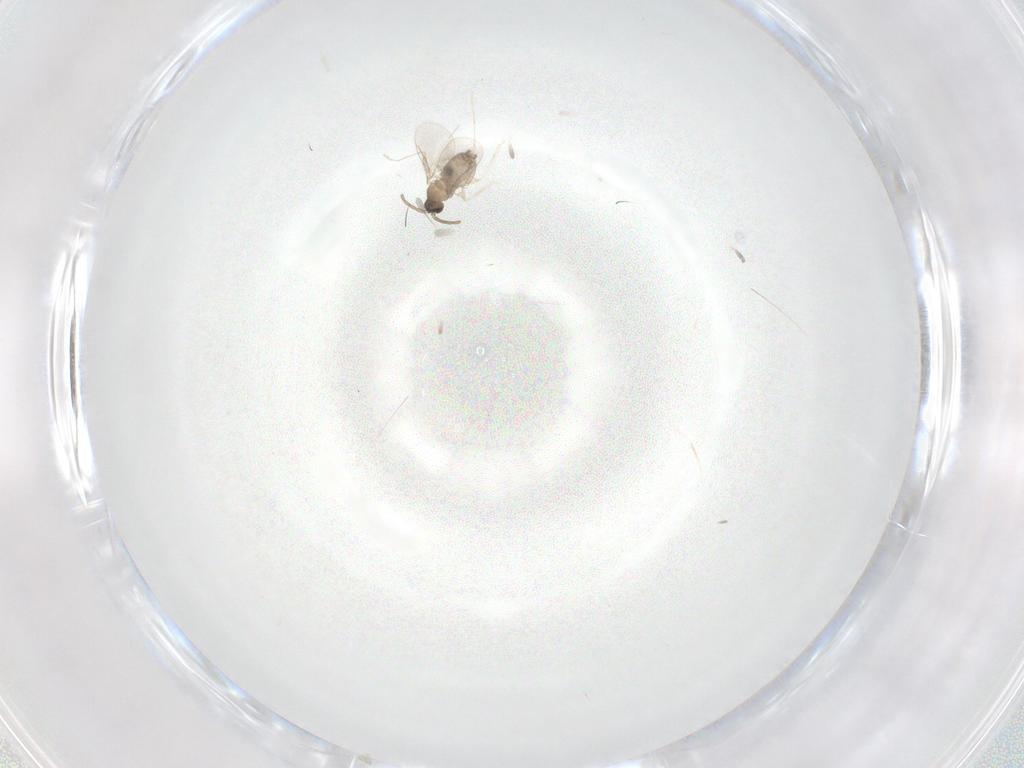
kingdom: Animalia
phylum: Arthropoda
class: Insecta
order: Diptera
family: Cecidomyiidae
